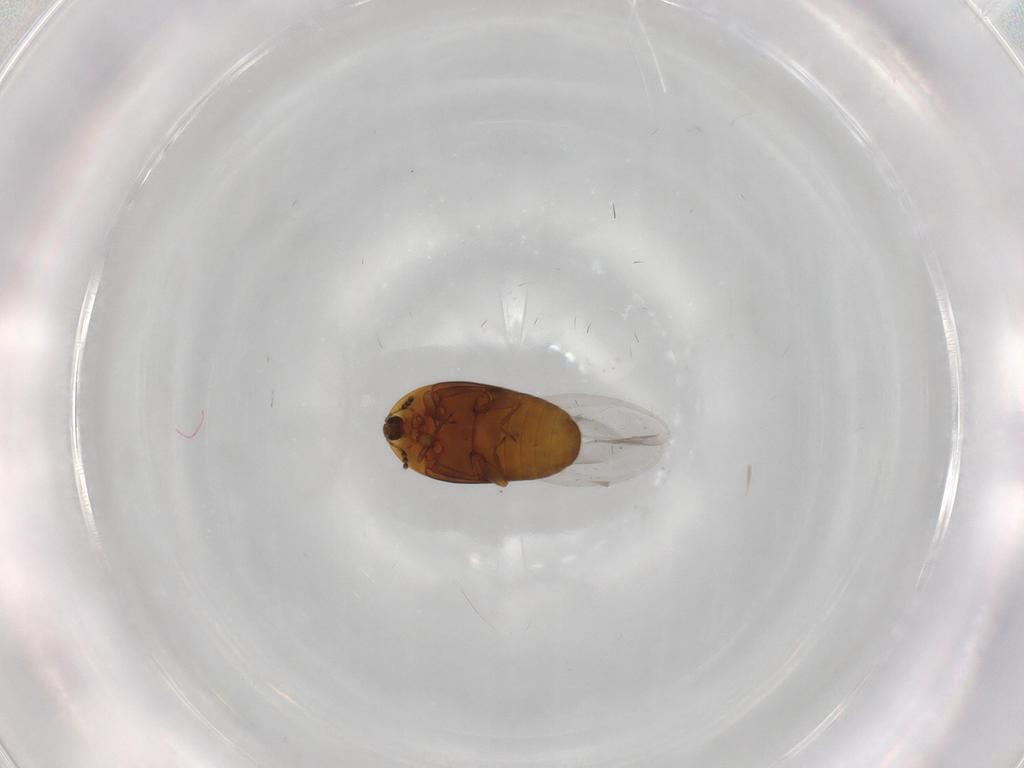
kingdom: Animalia
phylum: Arthropoda
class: Insecta
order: Coleoptera
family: Corylophidae
